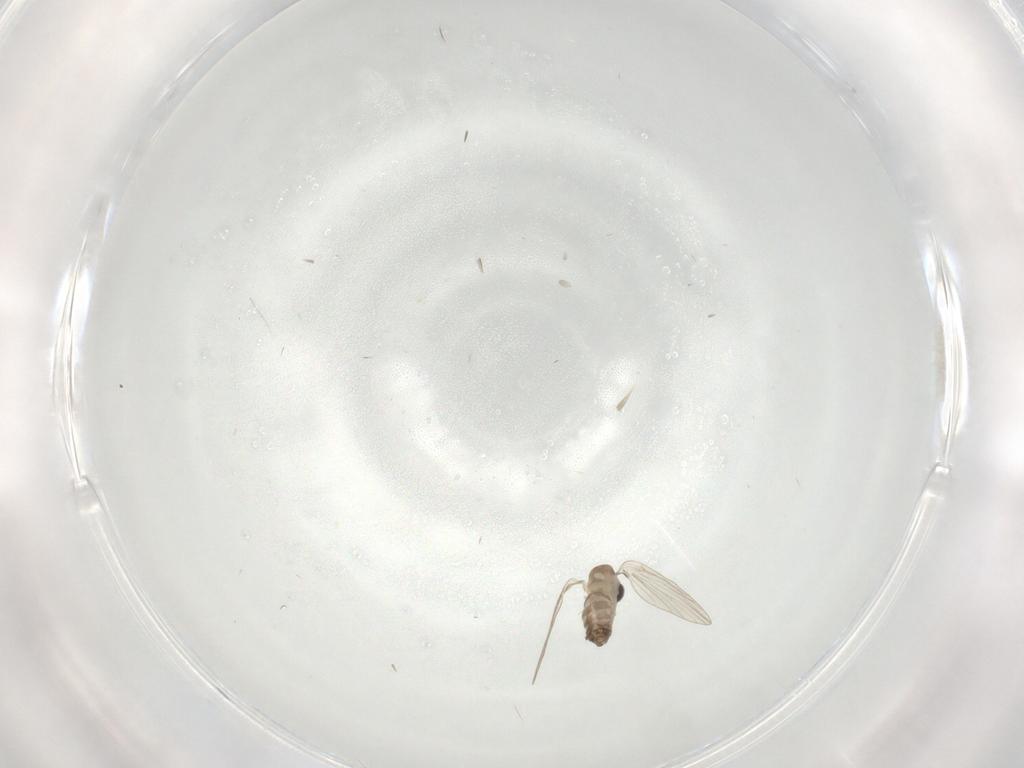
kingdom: Animalia
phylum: Arthropoda
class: Insecta
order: Diptera
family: Psychodidae
